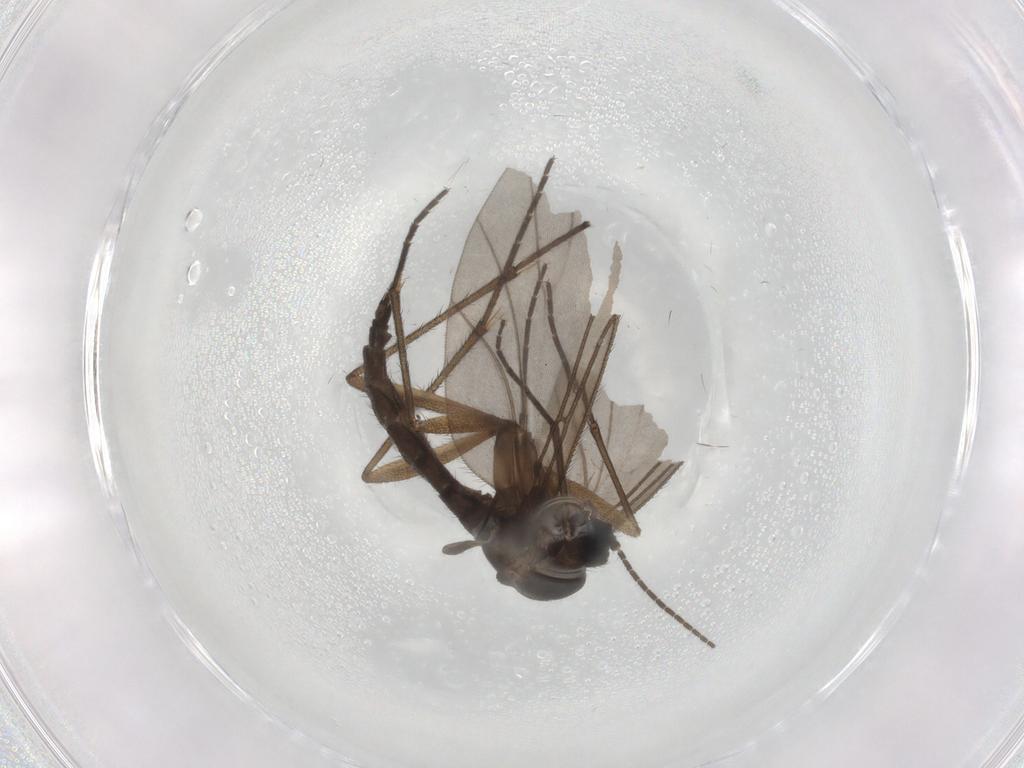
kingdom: Animalia
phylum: Arthropoda
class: Insecta
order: Diptera
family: Sciaridae
